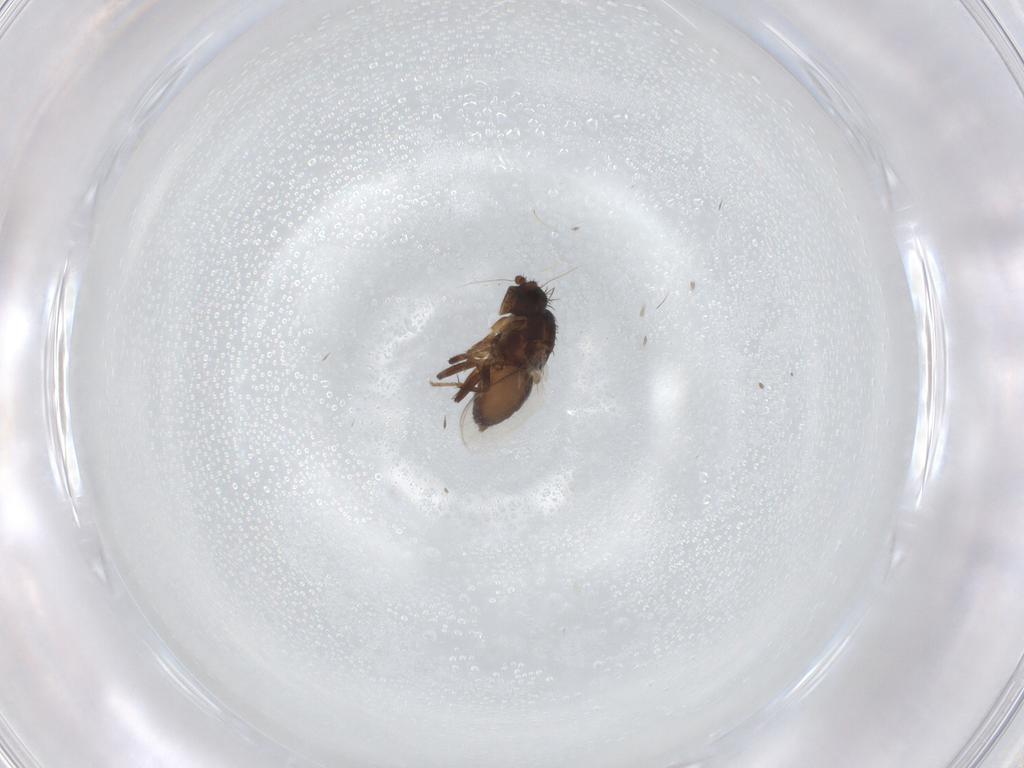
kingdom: Animalia
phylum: Arthropoda
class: Insecta
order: Diptera
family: Sphaeroceridae
